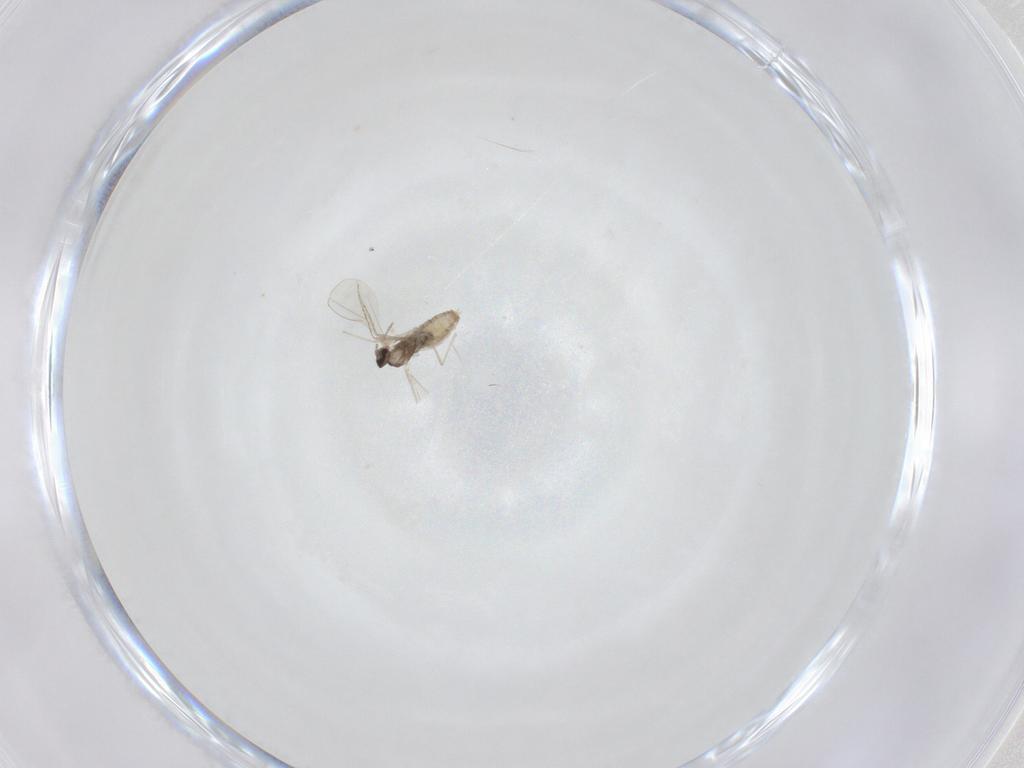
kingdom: Animalia
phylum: Arthropoda
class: Insecta
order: Diptera
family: Cecidomyiidae
